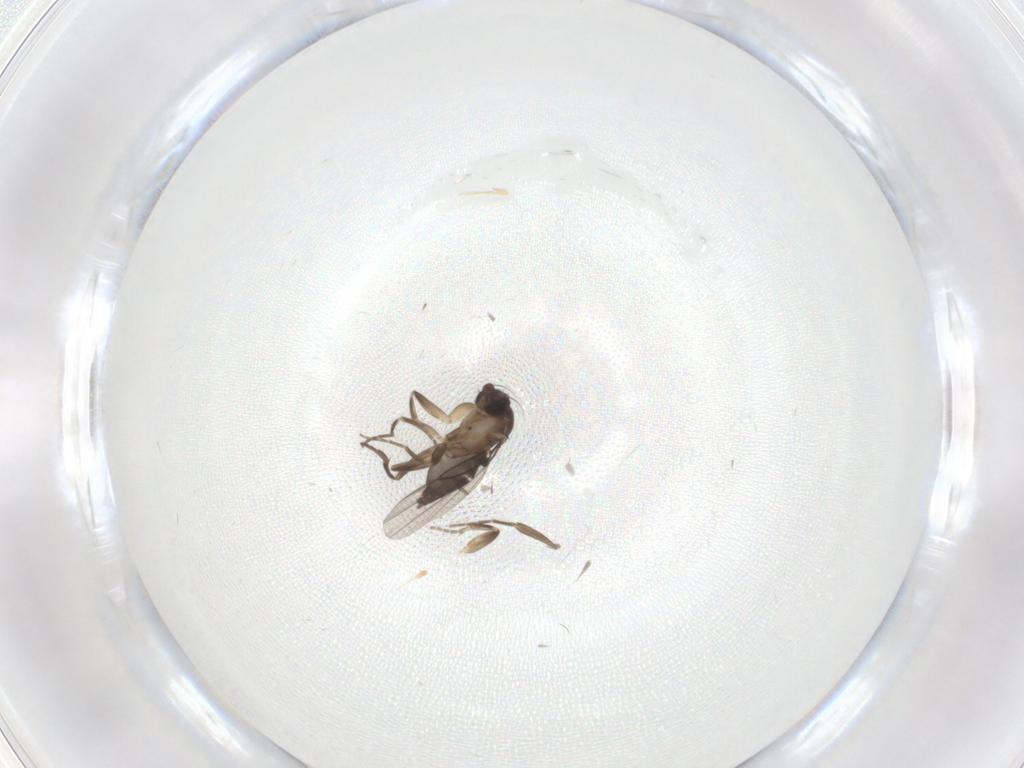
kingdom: Animalia
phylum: Arthropoda
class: Insecta
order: Diptera
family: Phoridae
